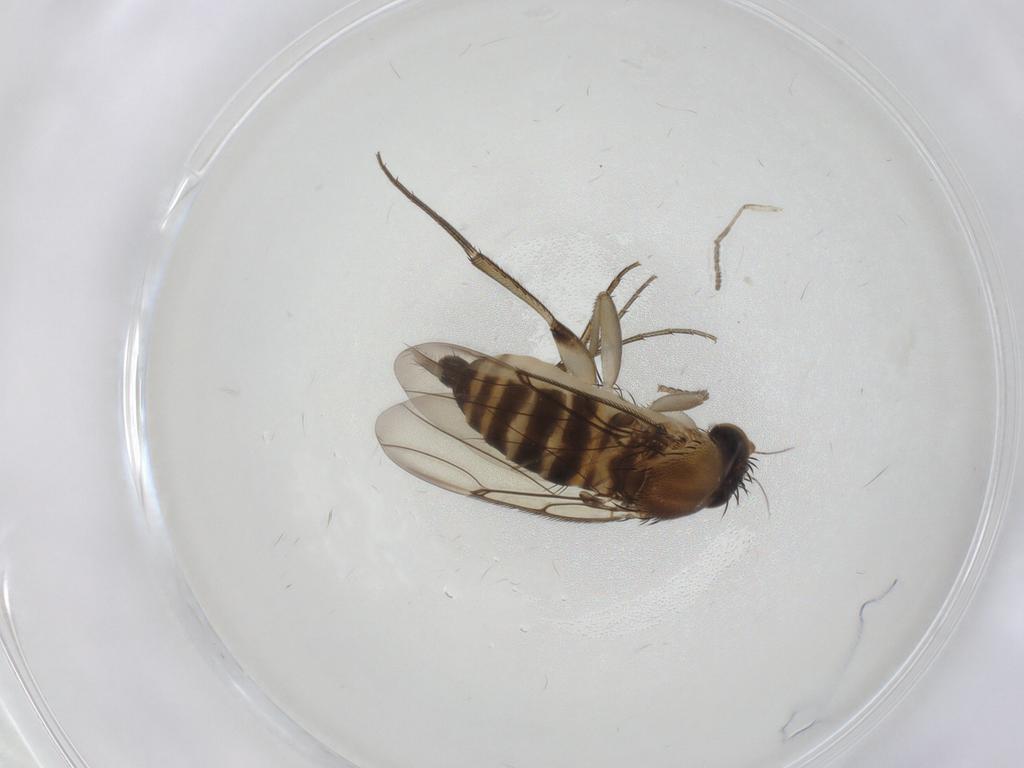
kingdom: Animalia
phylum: Arthropoda
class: Insecta
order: Diptera
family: Phoridae
